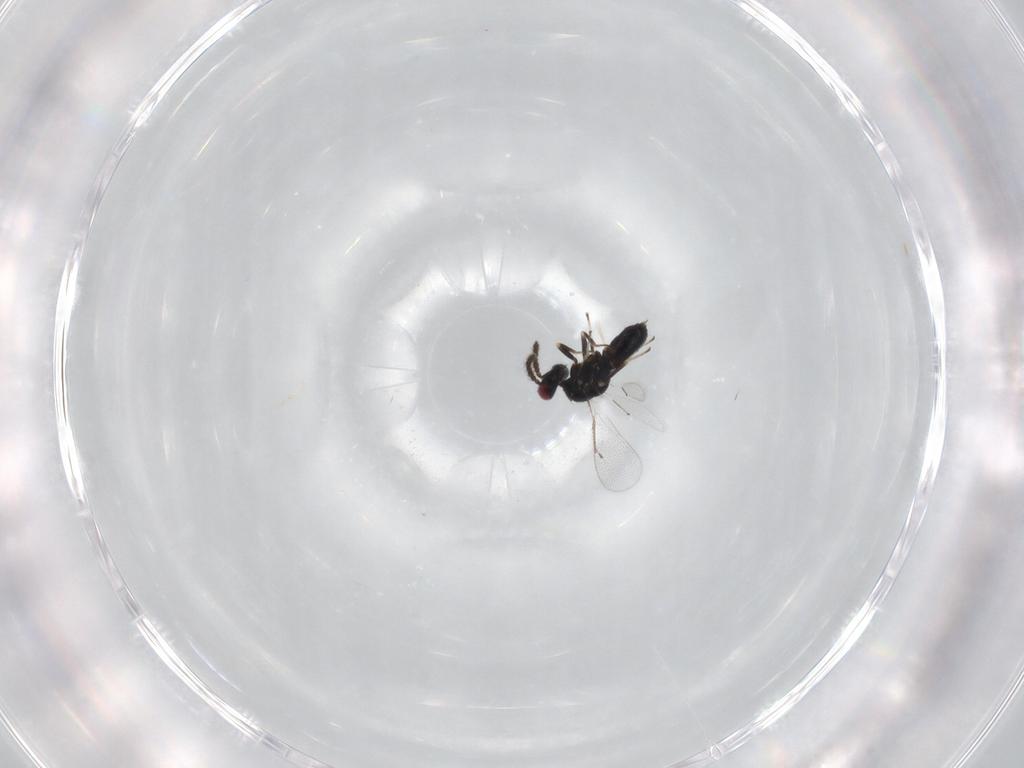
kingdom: Animalia
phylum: Arthropoda
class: Insecta
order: Hymenoptera
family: Eulophidae
